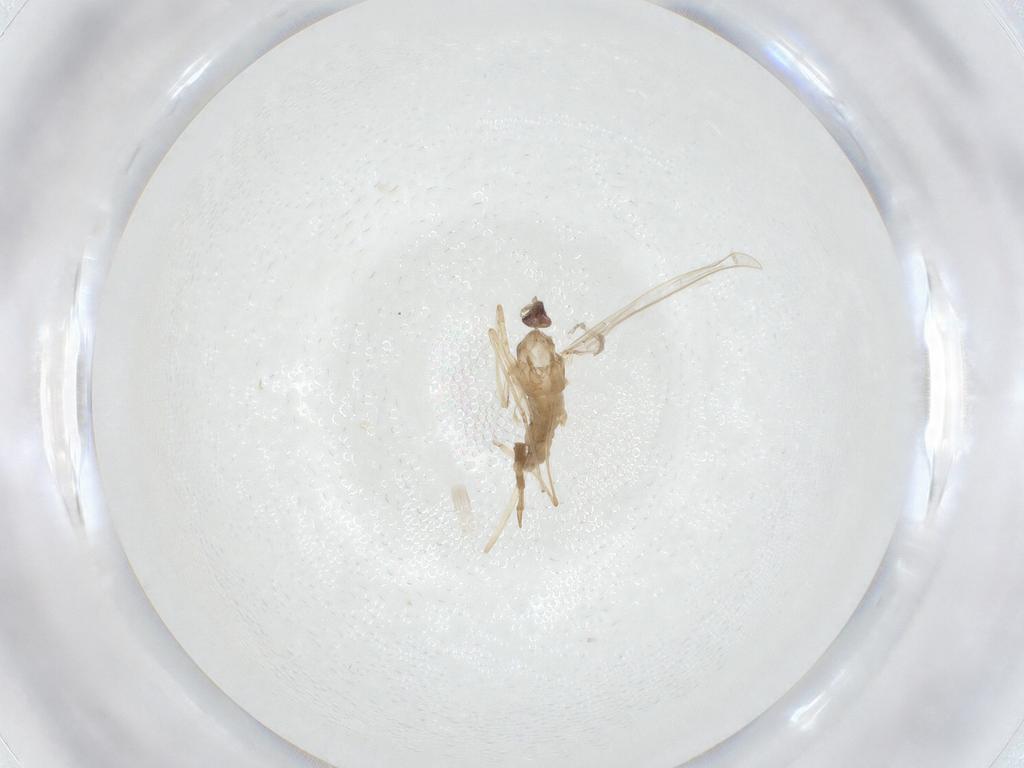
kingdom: Animalia
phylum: Arthropoda
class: Insecta
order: Diptera
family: Cecidomyiidae
